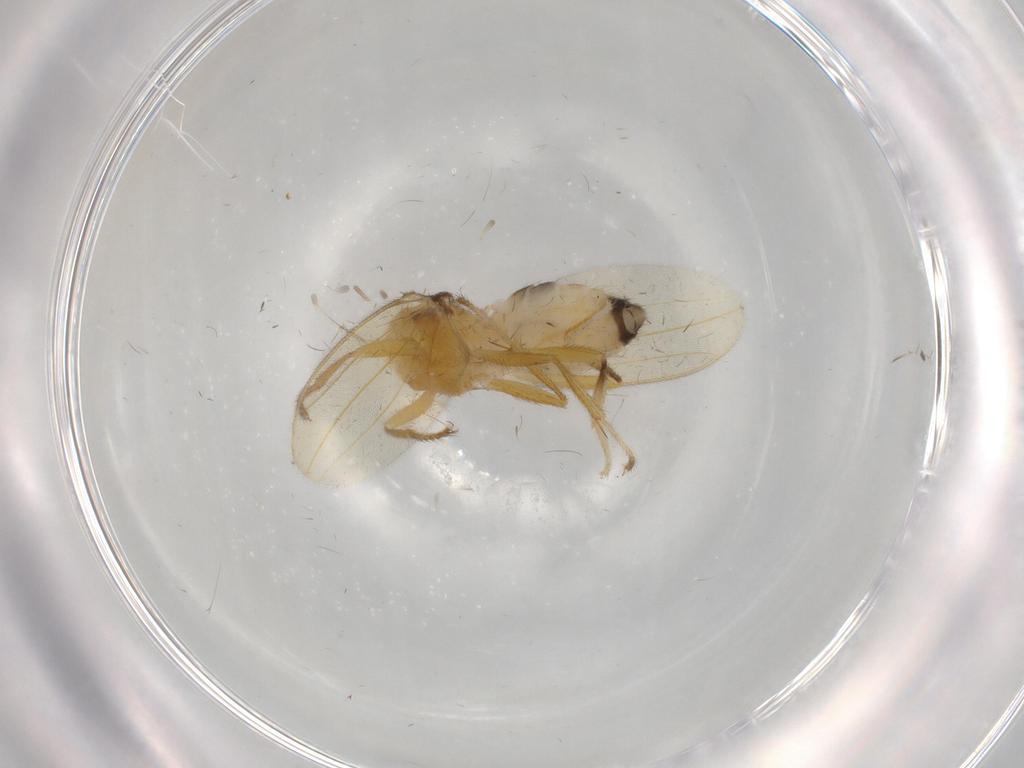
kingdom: Animalia
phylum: Arthropoda
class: Insecta
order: Diptera
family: Periscelididae
